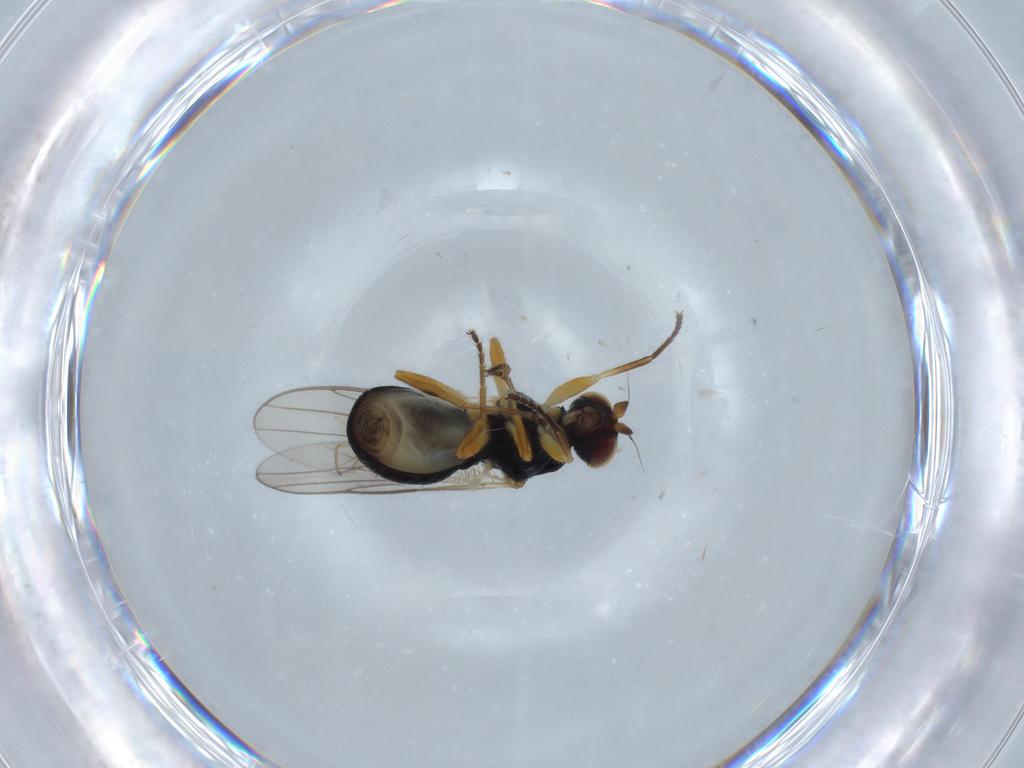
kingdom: Animalia
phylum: Arthropoda
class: Insecta
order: Diptera
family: Chloropidae
